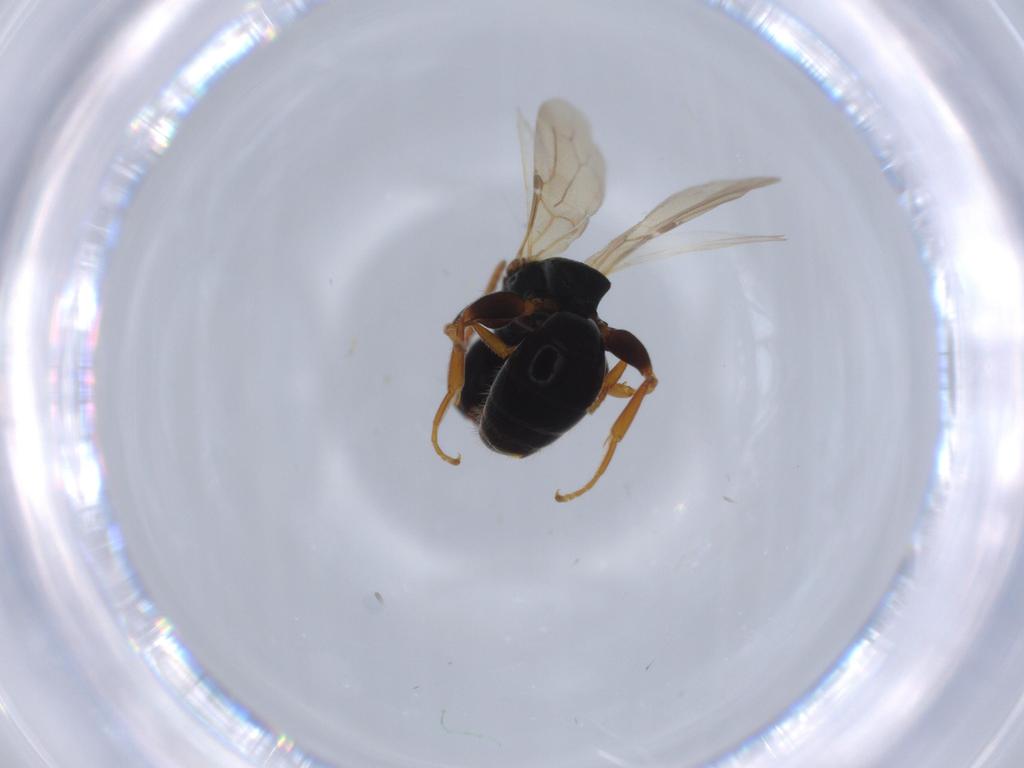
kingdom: Animalia
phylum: Arthropoda
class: Insecta
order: Hymenoptera
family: Bethylidae
